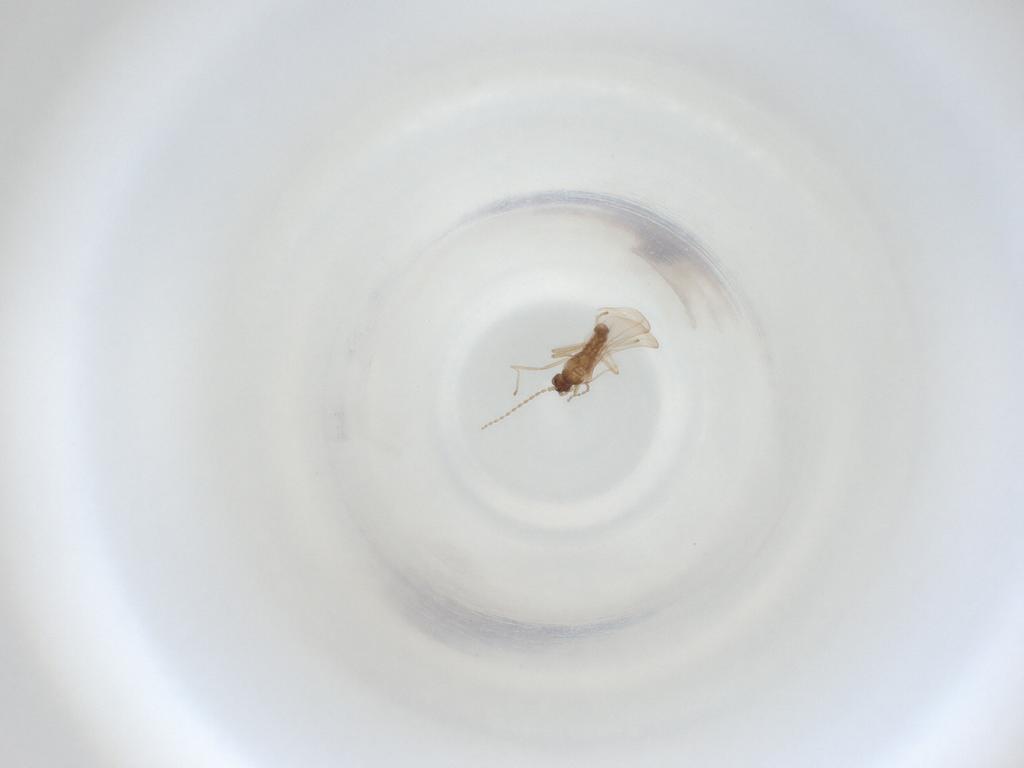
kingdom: Animalia
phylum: Arthropoda
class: Insecta
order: Diptera
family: Cecidomyiidae
